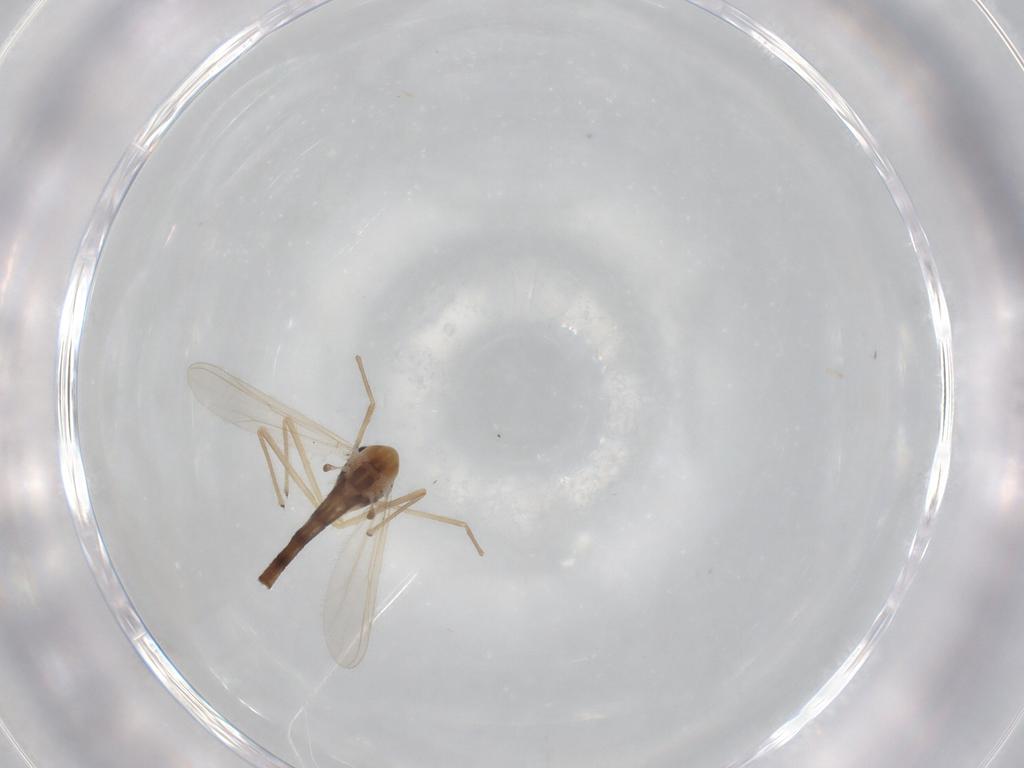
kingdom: Animalia
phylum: Arthropoda
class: Insecta
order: Diptera
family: Chironomidae
